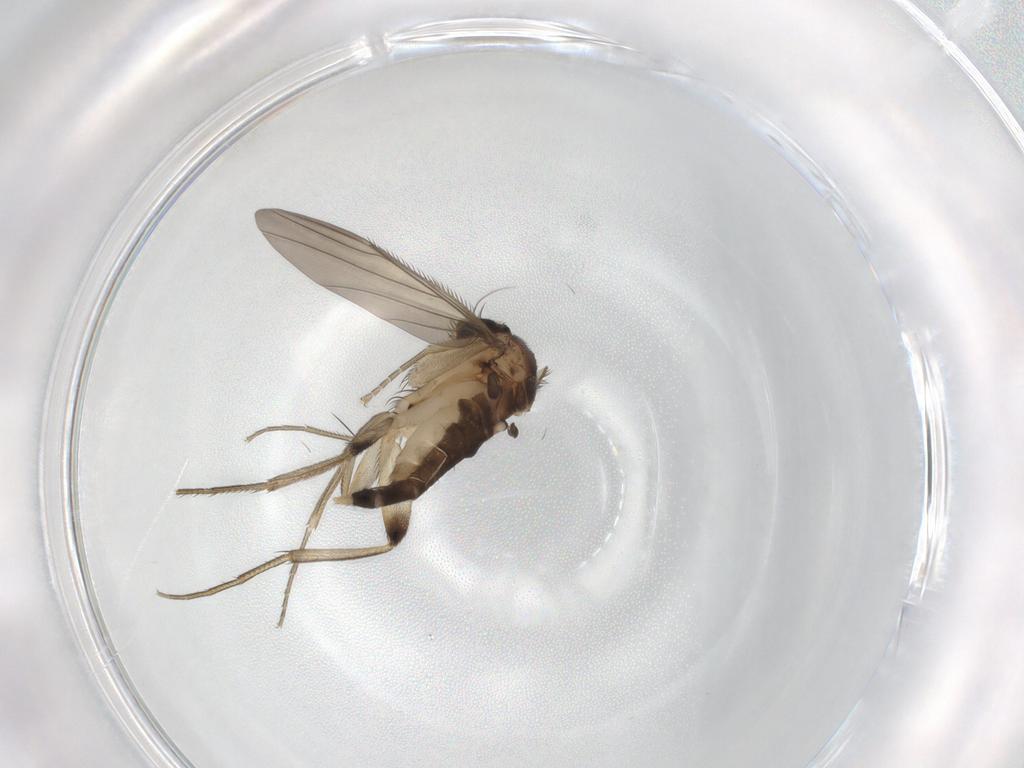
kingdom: Animalia
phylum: Arthropoda
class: Insecta
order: Diptera
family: Phoridae
